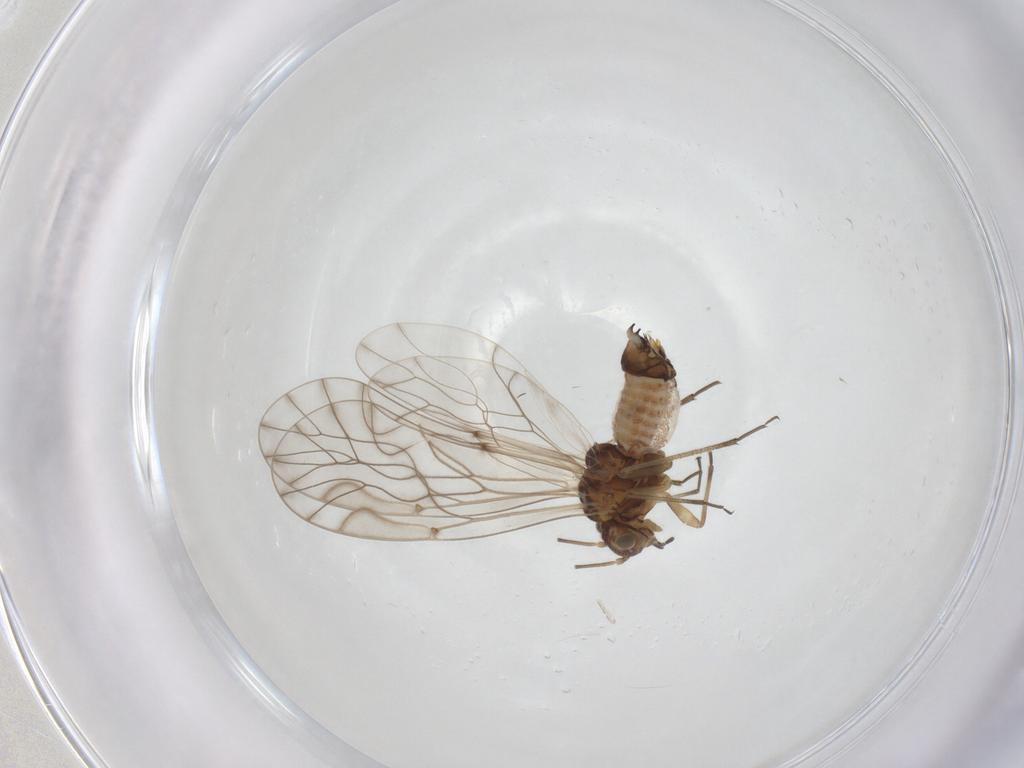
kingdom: Animalia
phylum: Arthropoda
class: Insecta
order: Psocodea
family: Lachesillidae
